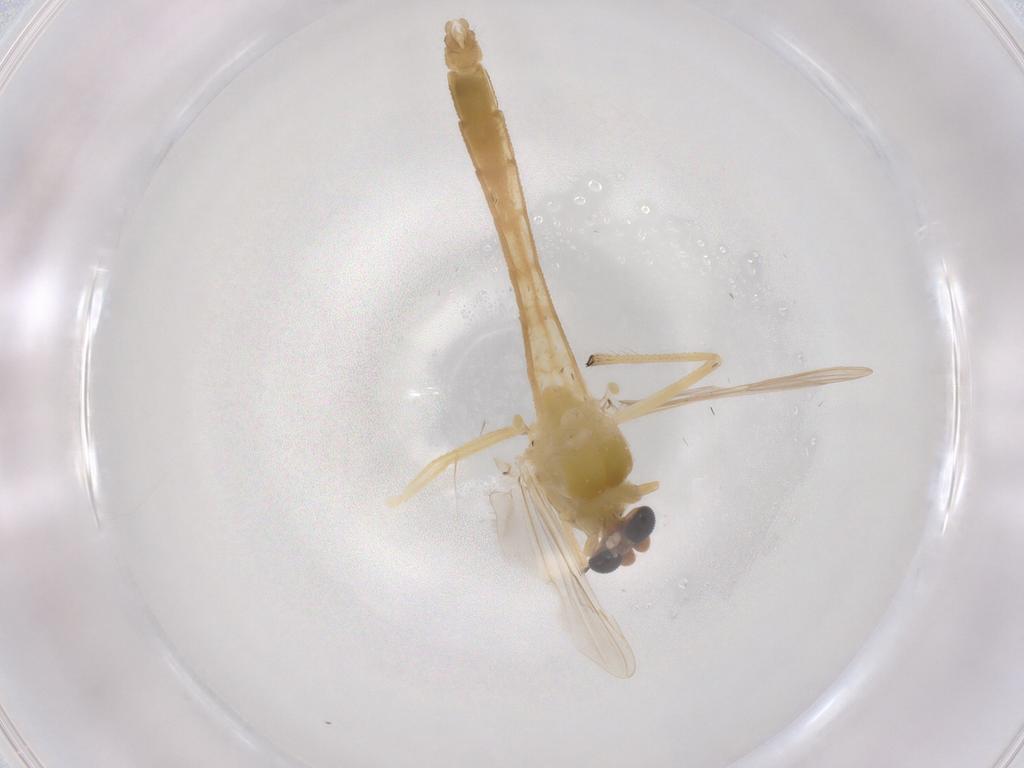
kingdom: Animalia
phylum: Arthropoda
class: Insecta
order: Diptera
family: Chironomidae
